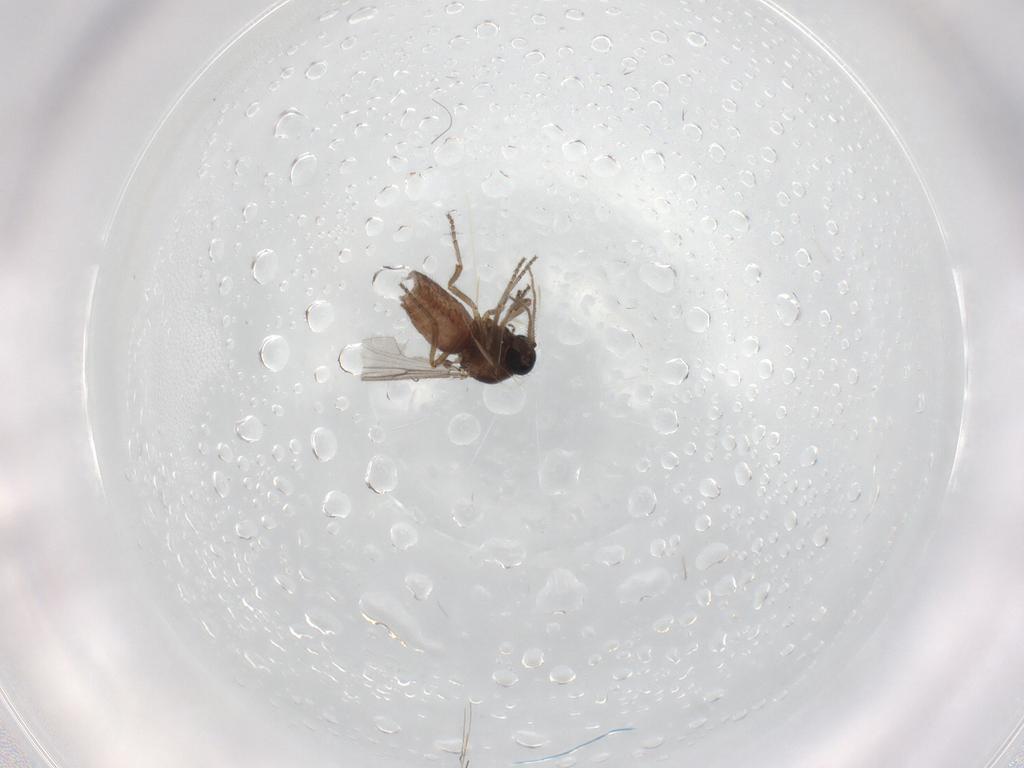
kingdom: Animalia
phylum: Arthropoda
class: Insecta
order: Diptera
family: Ceratopogonidae
